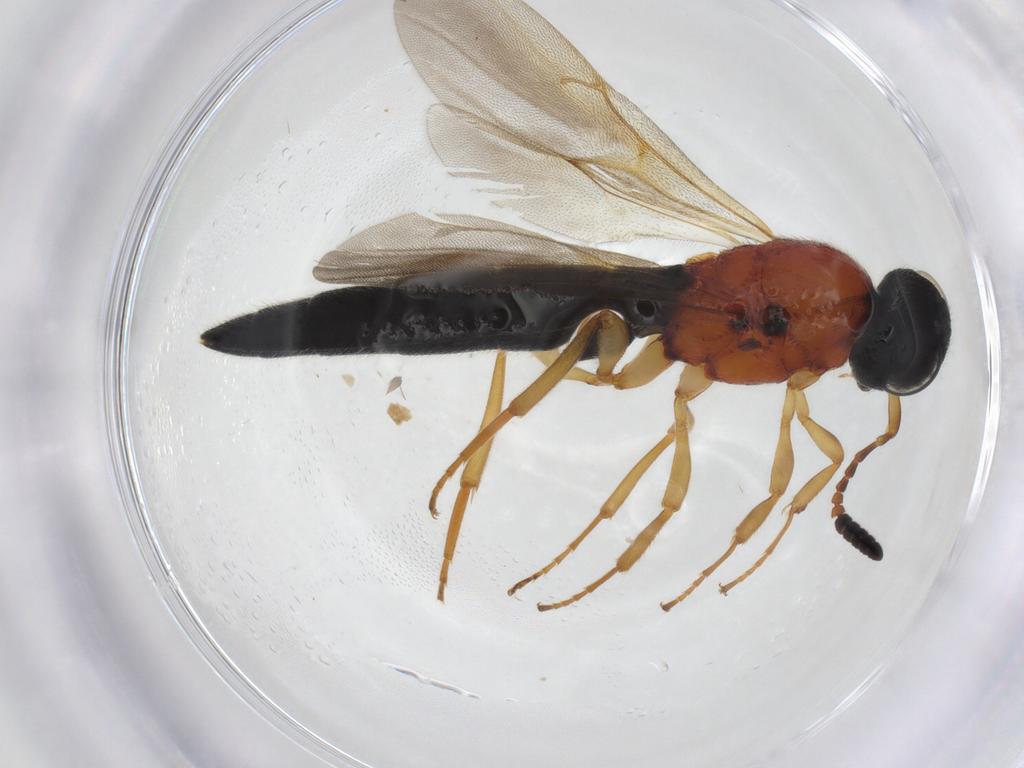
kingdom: Animalia
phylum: Arthropoda
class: Insecta
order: Hymenoptera
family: Scelionidae
